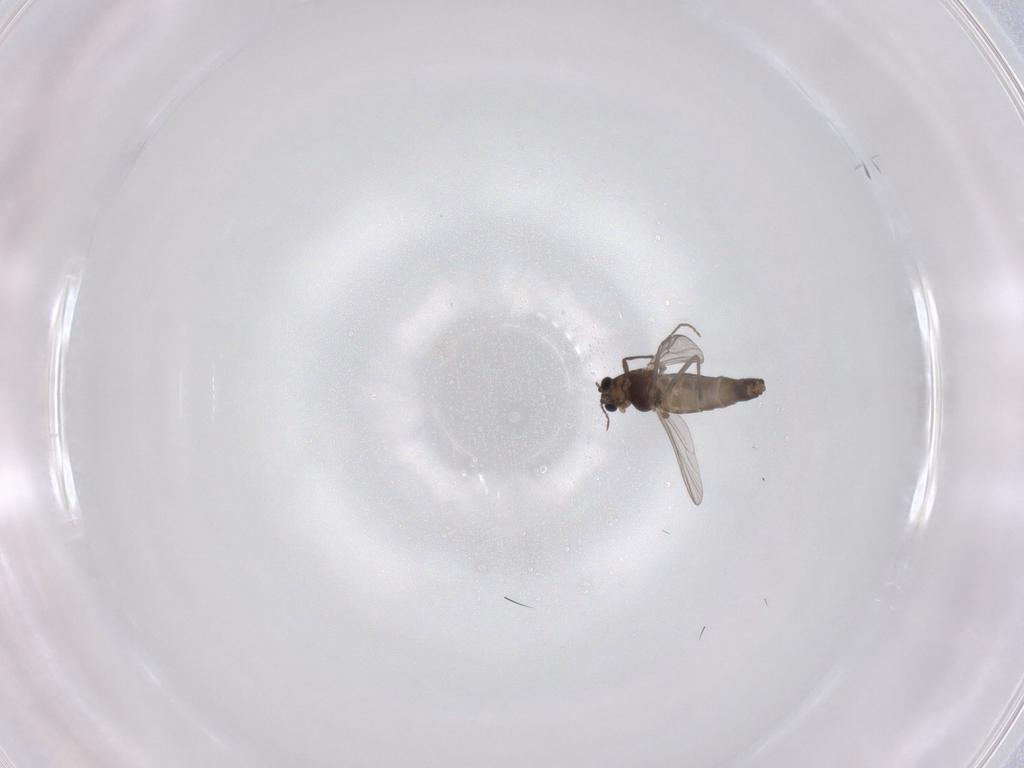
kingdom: Animalia
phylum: Arthropoda
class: Insecta
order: Diptera
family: Chironomidae
